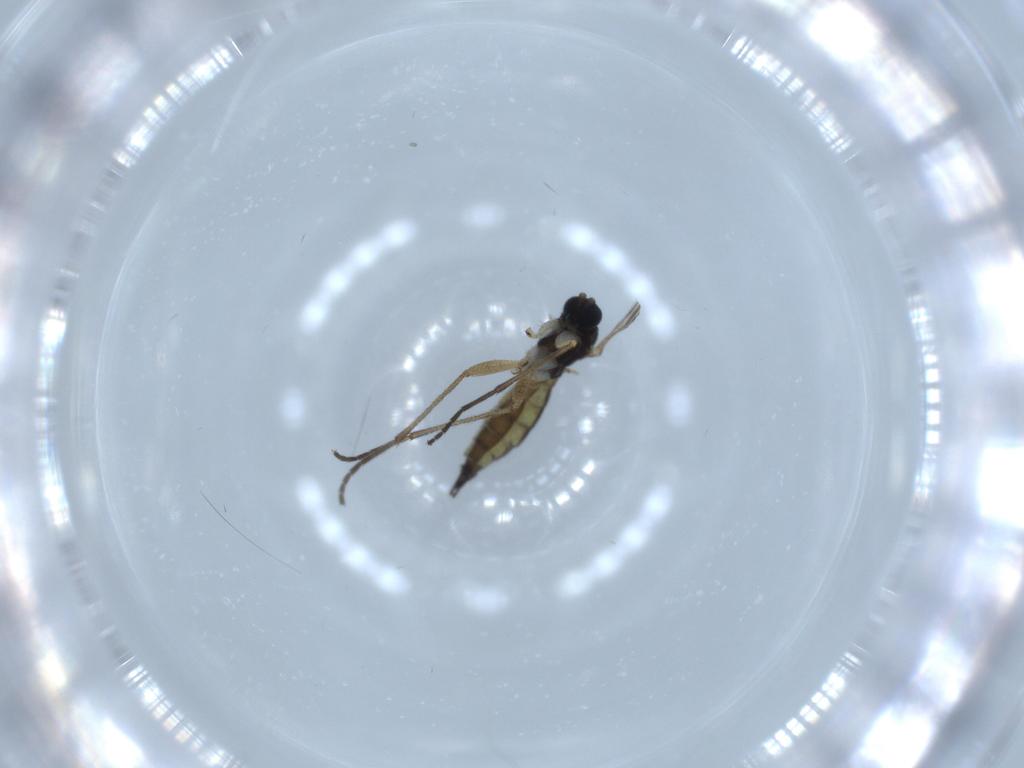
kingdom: Animalia
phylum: Arthropoda
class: Insecta
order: Diptera
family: Sciaridae
